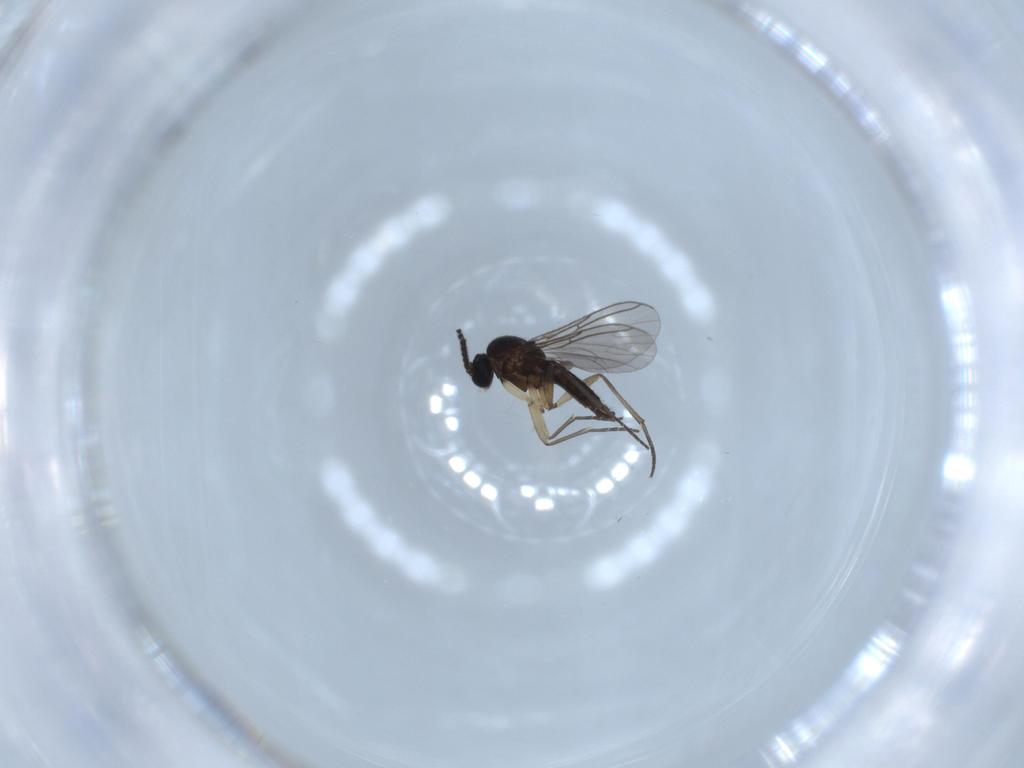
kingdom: Animalia
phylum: Arthropoda
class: Insecta
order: Diptera
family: Sciaridae
